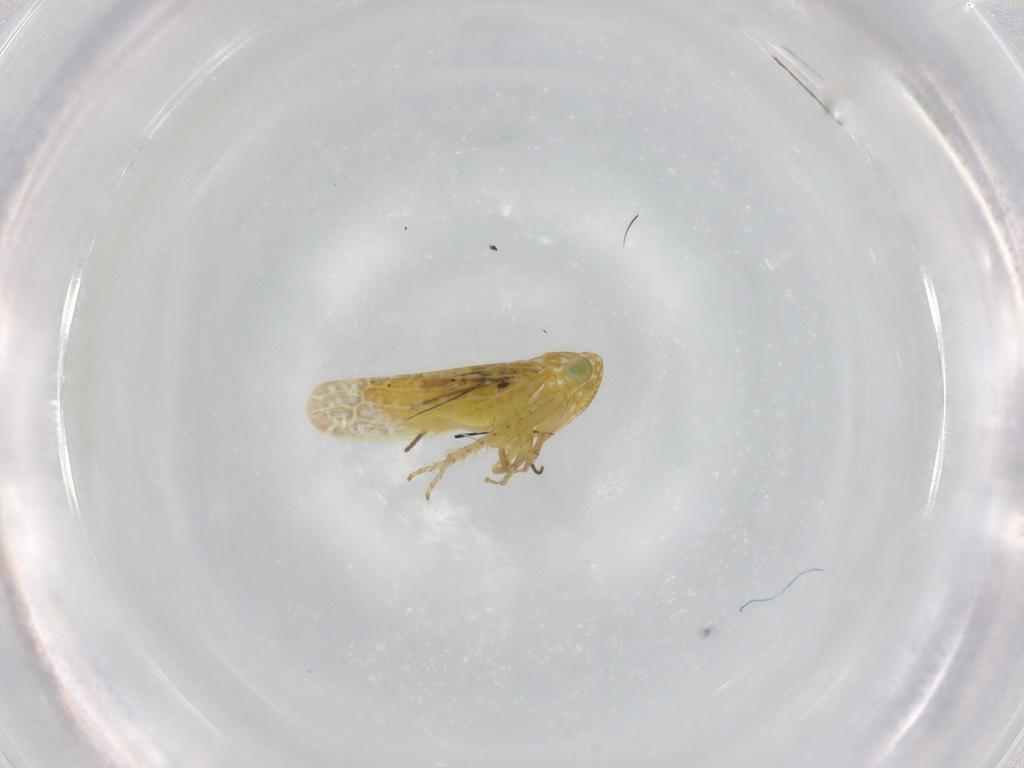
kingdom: Animalia
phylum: Arthropoda
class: Insecta
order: Hemiptera
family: Cicadellidae
